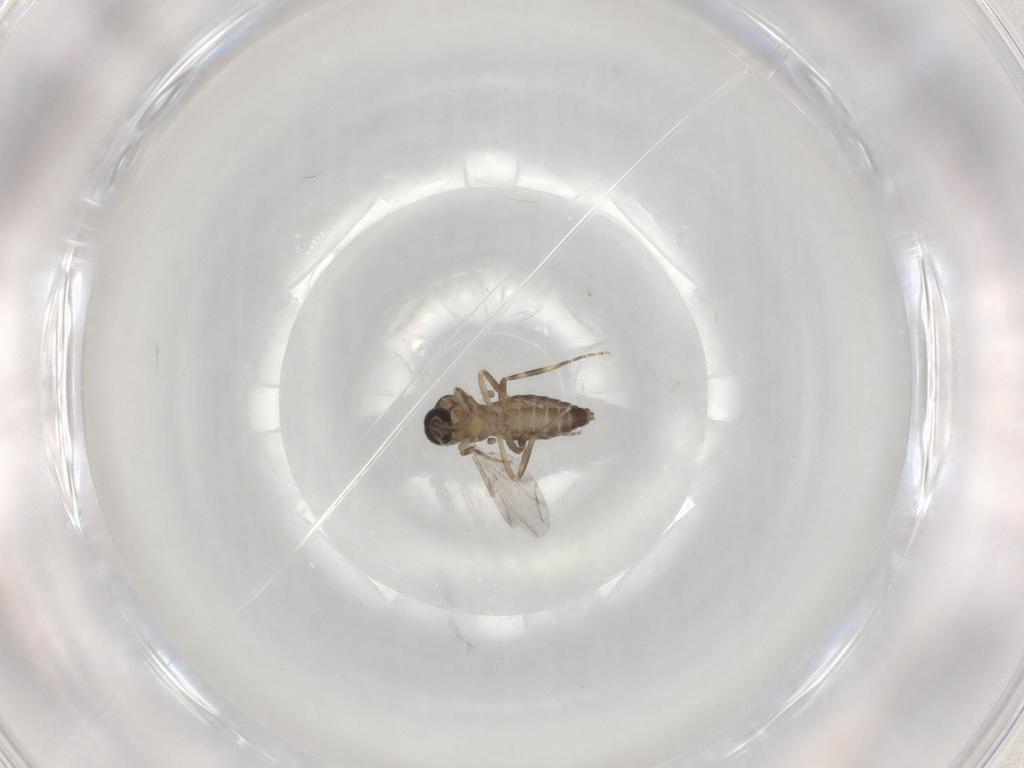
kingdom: Animalia
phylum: Arthropoda
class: Insecta
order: Diptera
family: Ceratopogonidae
